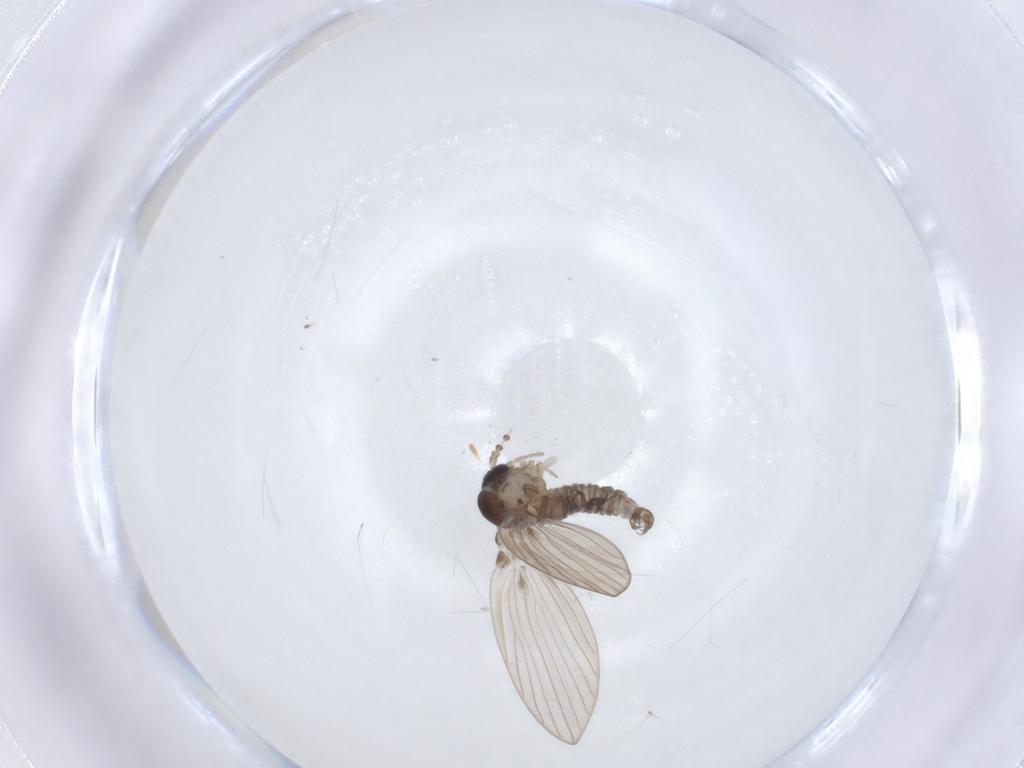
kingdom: Animalia
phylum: Arthropoda
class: Insecta
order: Diptera
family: Psychodidae
